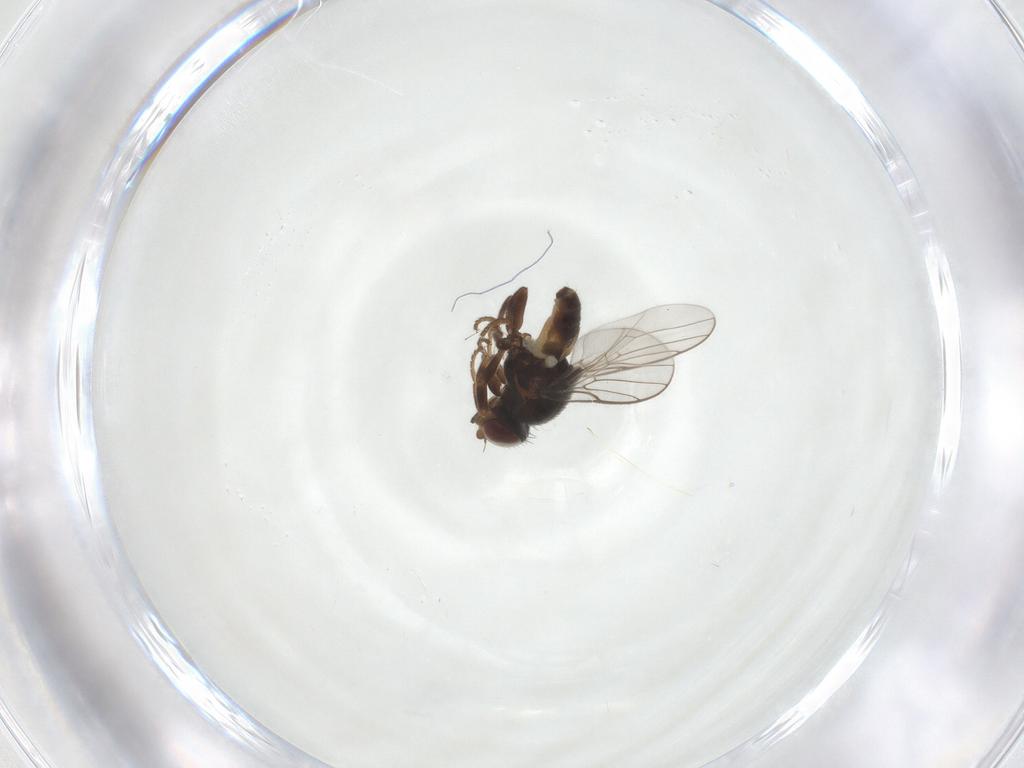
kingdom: Animalia
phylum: Arthropoda
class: Insecta
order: Diptera
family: Chloropidae
